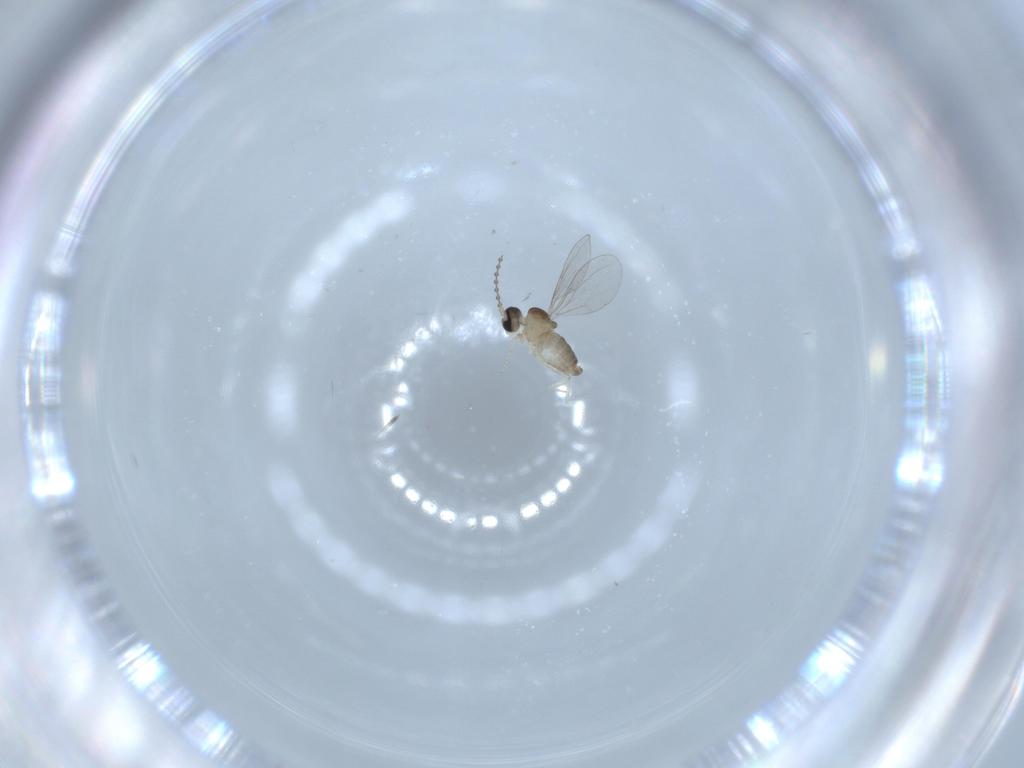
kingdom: Animalia
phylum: Arthropoda
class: Insecta
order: Diptera
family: Cecidomyiidae
